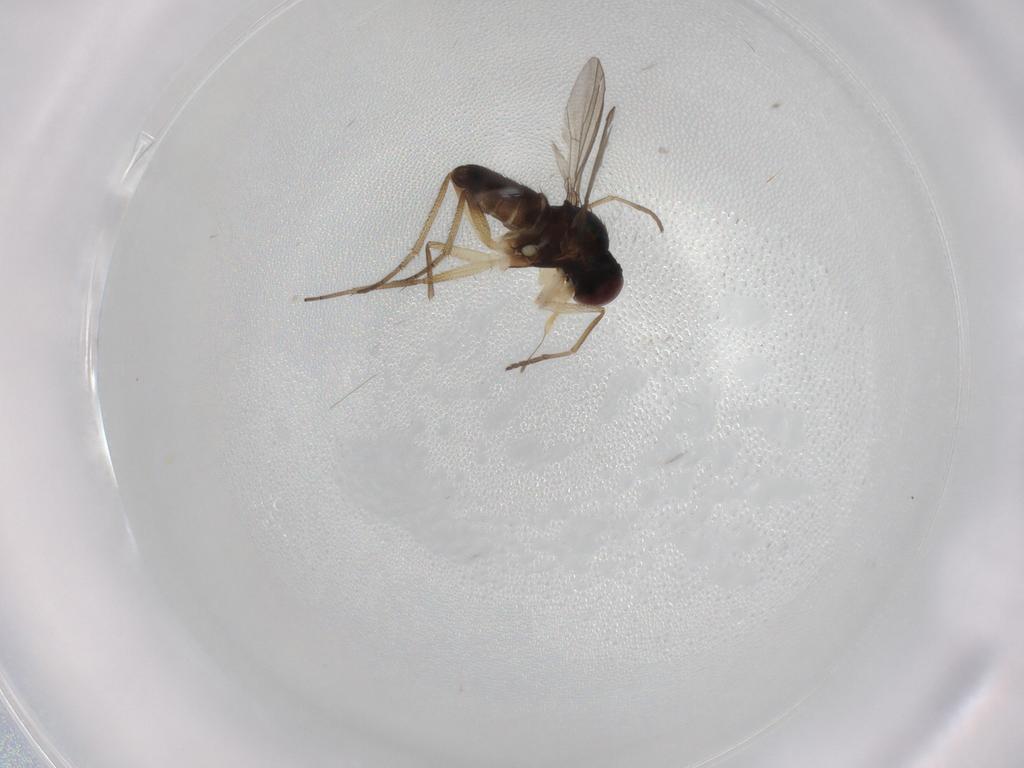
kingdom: Animalia
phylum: Arthropoda
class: Insecta
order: Diptera
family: Dolichopodidae
